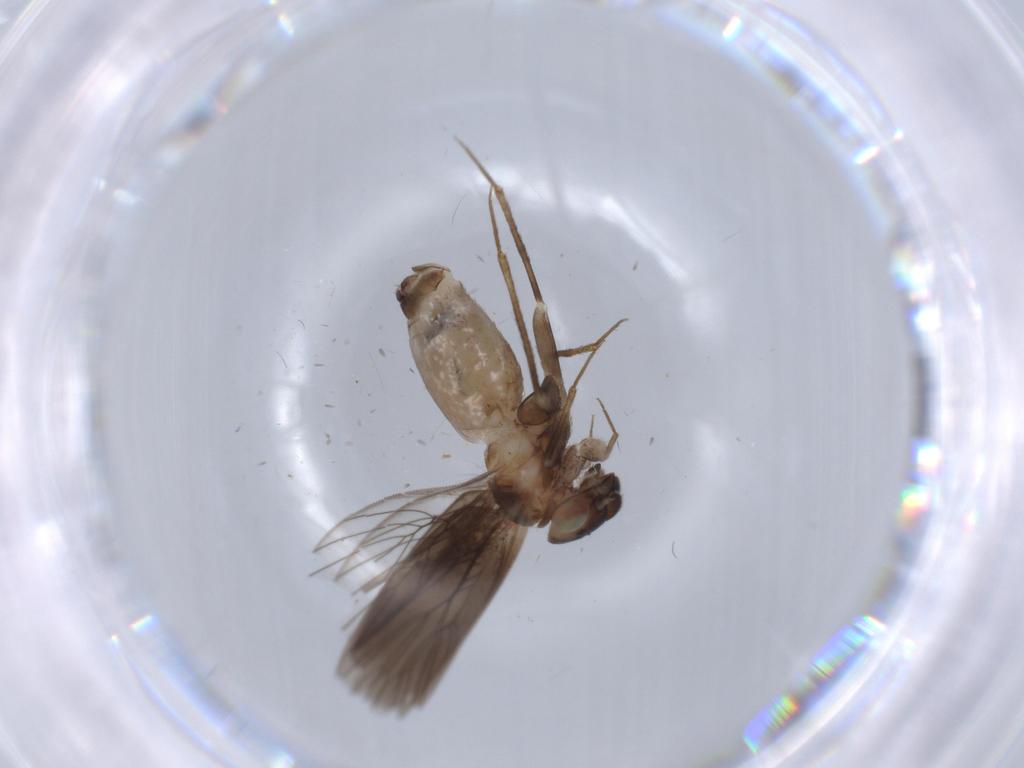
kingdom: Animalia
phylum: Arthropoda
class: Insecta
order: Psocodea
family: Lepidopsocidae
